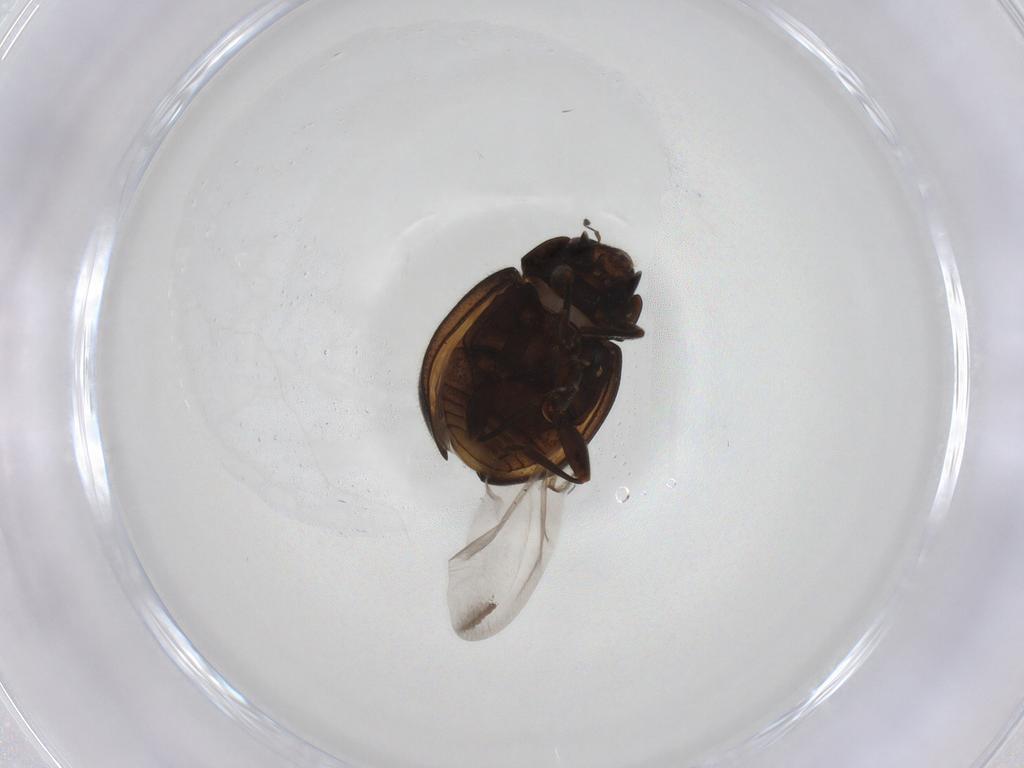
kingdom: Animalia
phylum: Arthropoda
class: Insecta
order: Coleoptera
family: Coccinellidae
